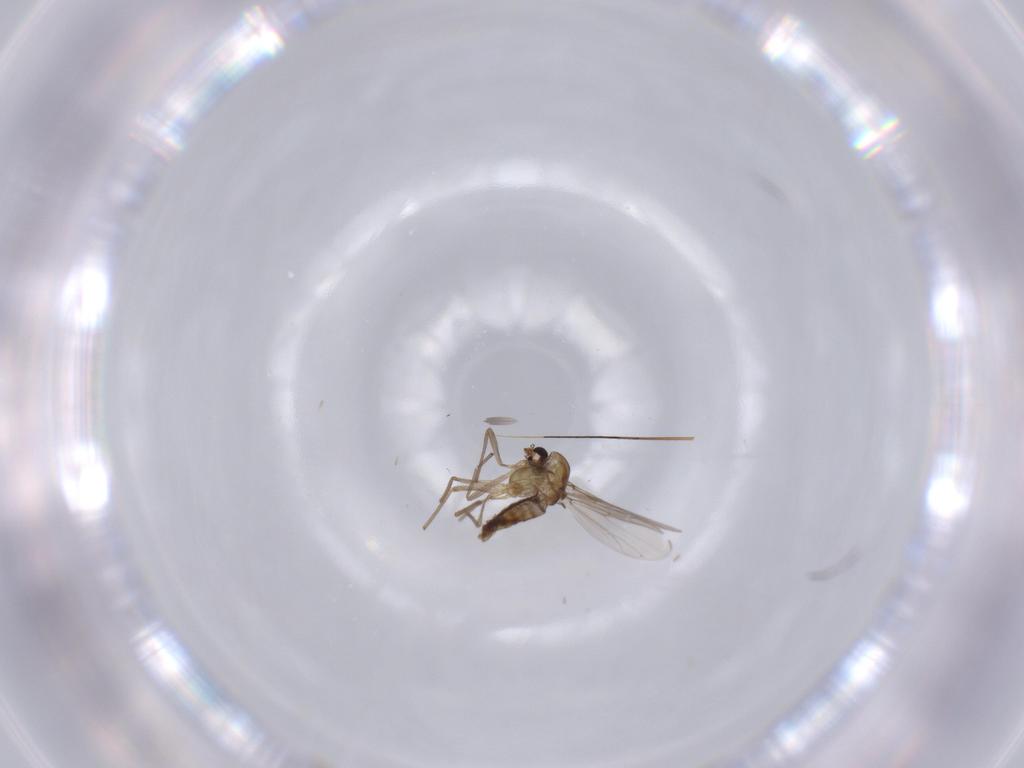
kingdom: Animalia
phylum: Arthropoda
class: Insecta
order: Diptera
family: Chironomidae
